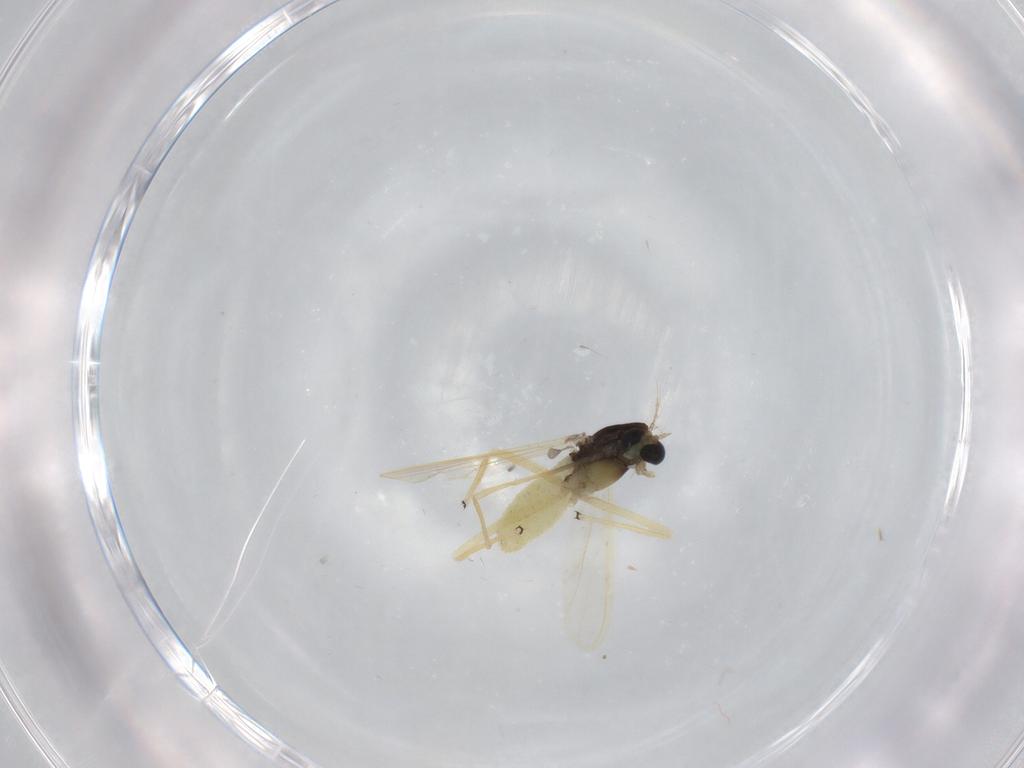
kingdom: Animalia
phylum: Arthropoda
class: Insecta
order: Diptera
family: Chironomidae
